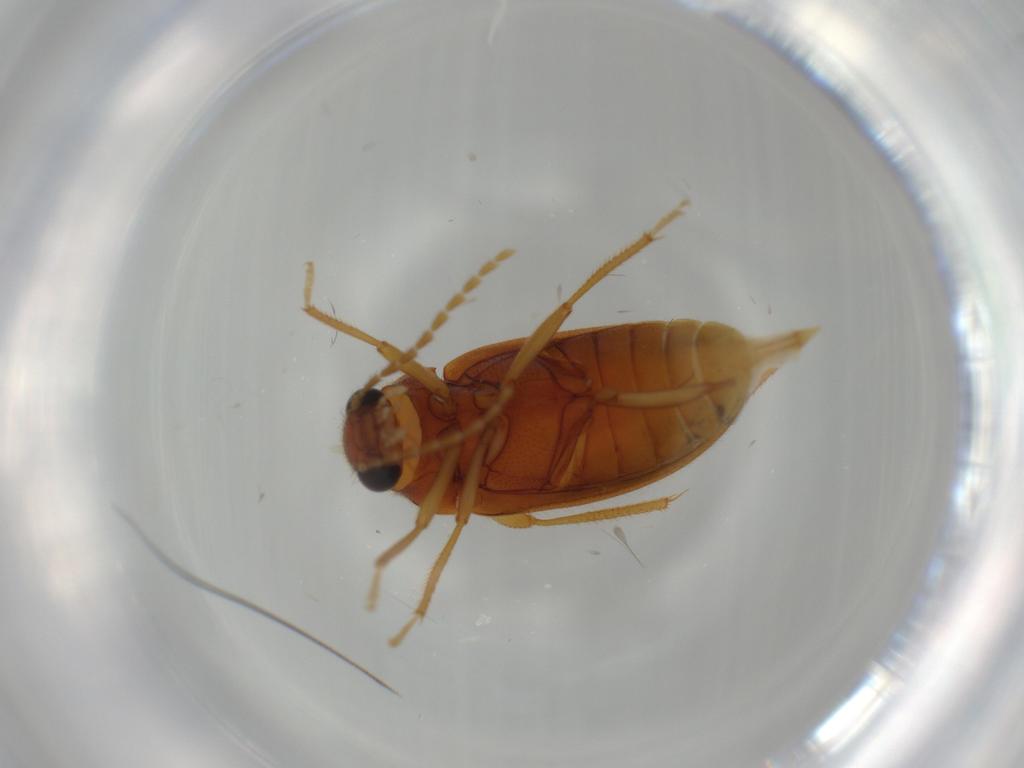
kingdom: Animalia
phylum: Arthropoda
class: Insecta
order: Coleoptera
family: Ptilodactylidae
